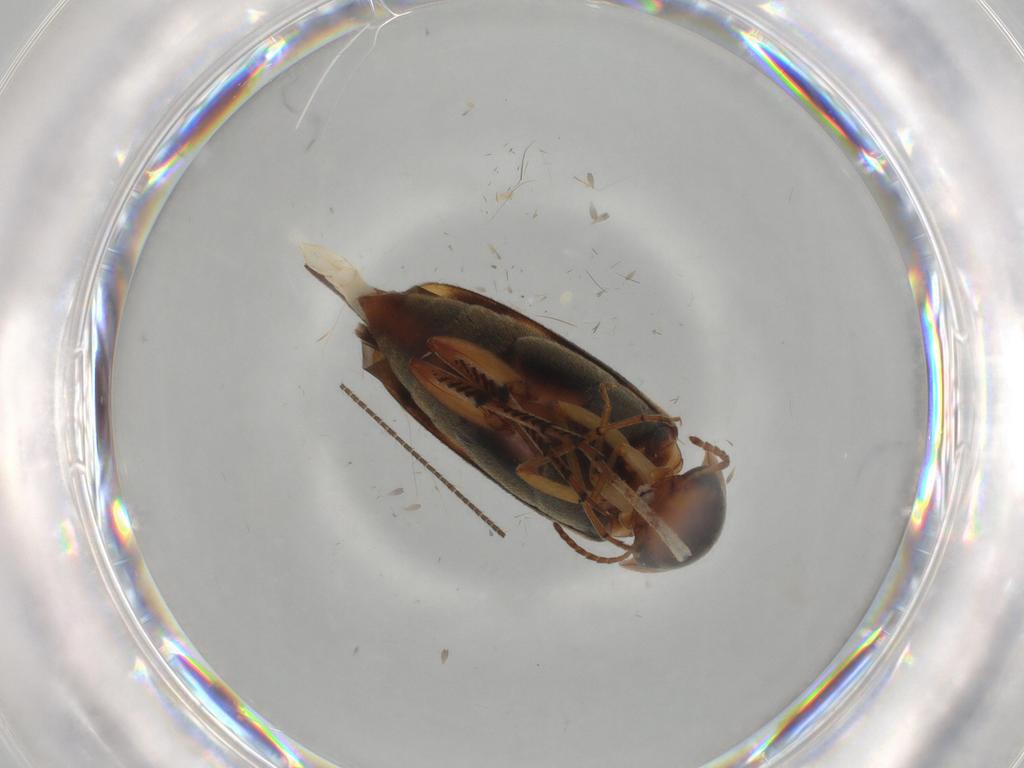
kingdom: Animalia
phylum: Arthropoda
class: Insecta
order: Coleoptera
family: Mordellidae
